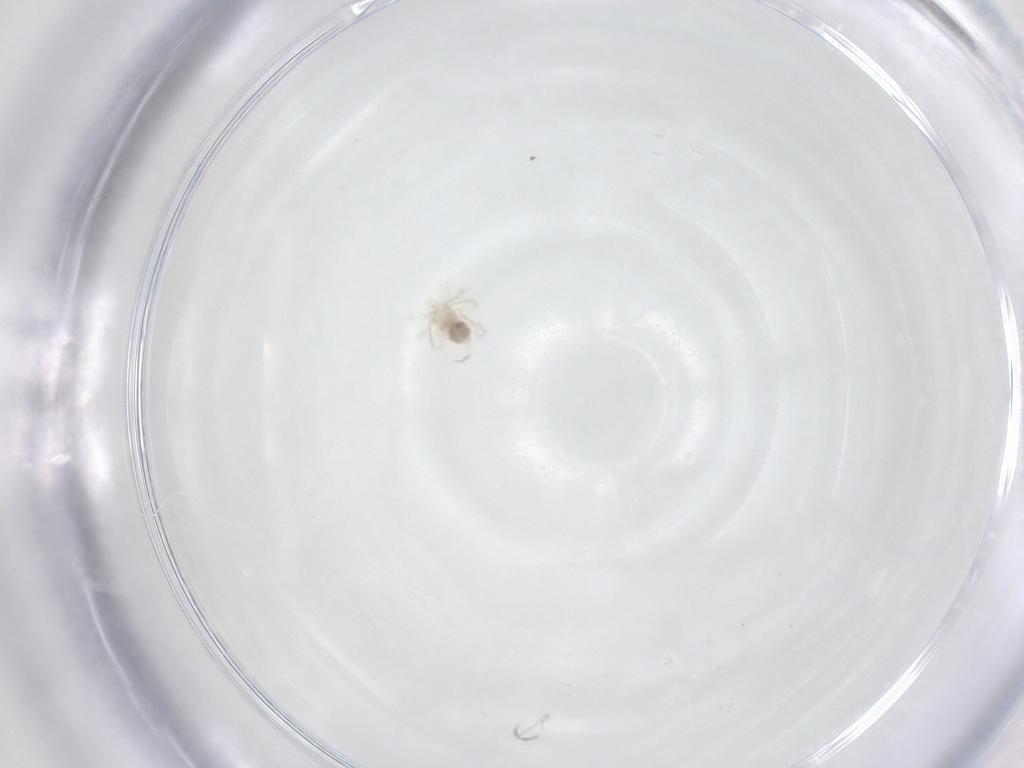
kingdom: Animalia
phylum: Arthropoda
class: Arachnida
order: Trombidiformes
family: Anystidae
